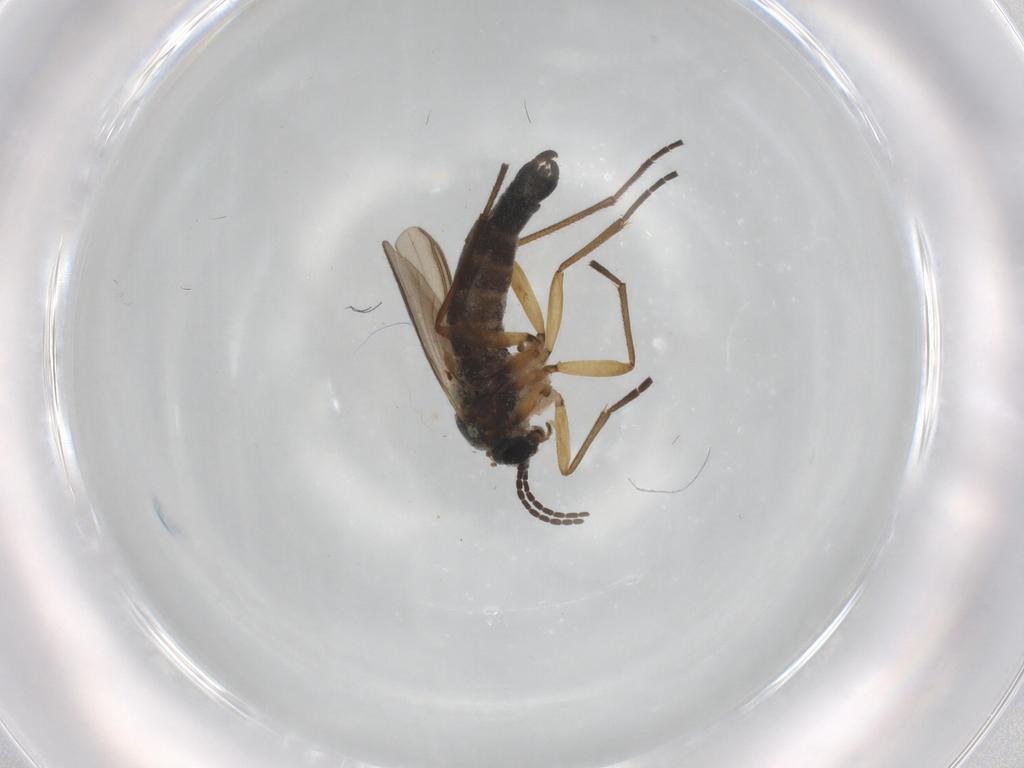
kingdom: Animalia
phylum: Arthropoda
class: Insecta
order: Diptera
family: Sciaridae
